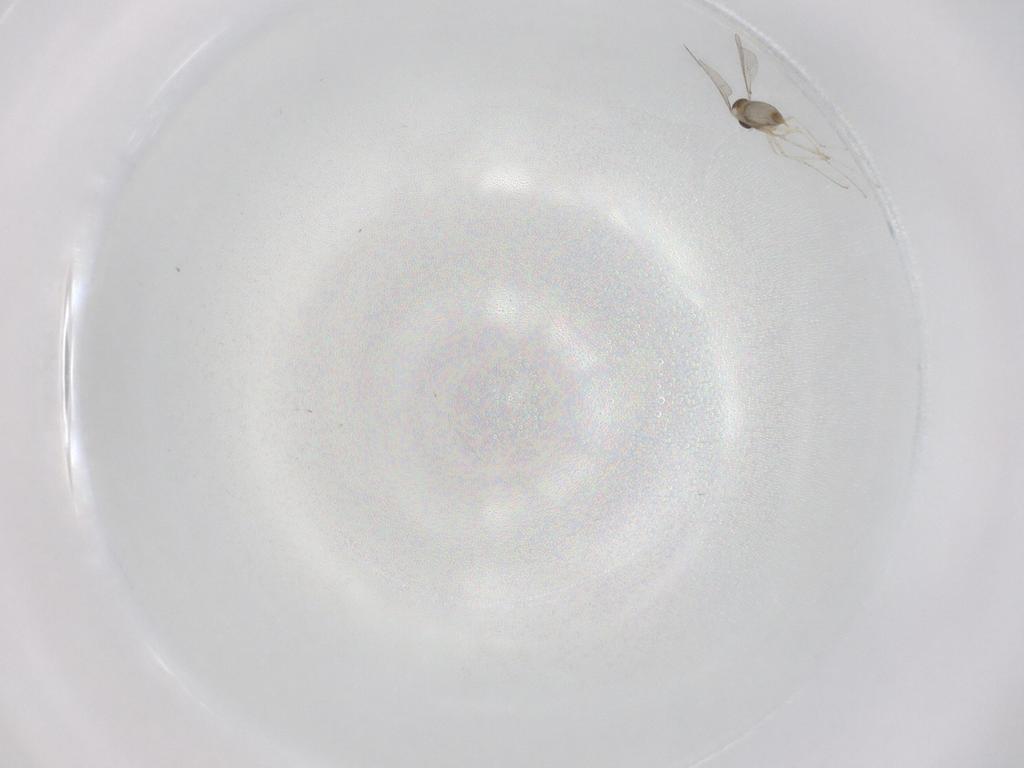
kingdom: Animalia
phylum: Arthropoda
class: Insecta
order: Diptera
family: Cecidomyiidae
